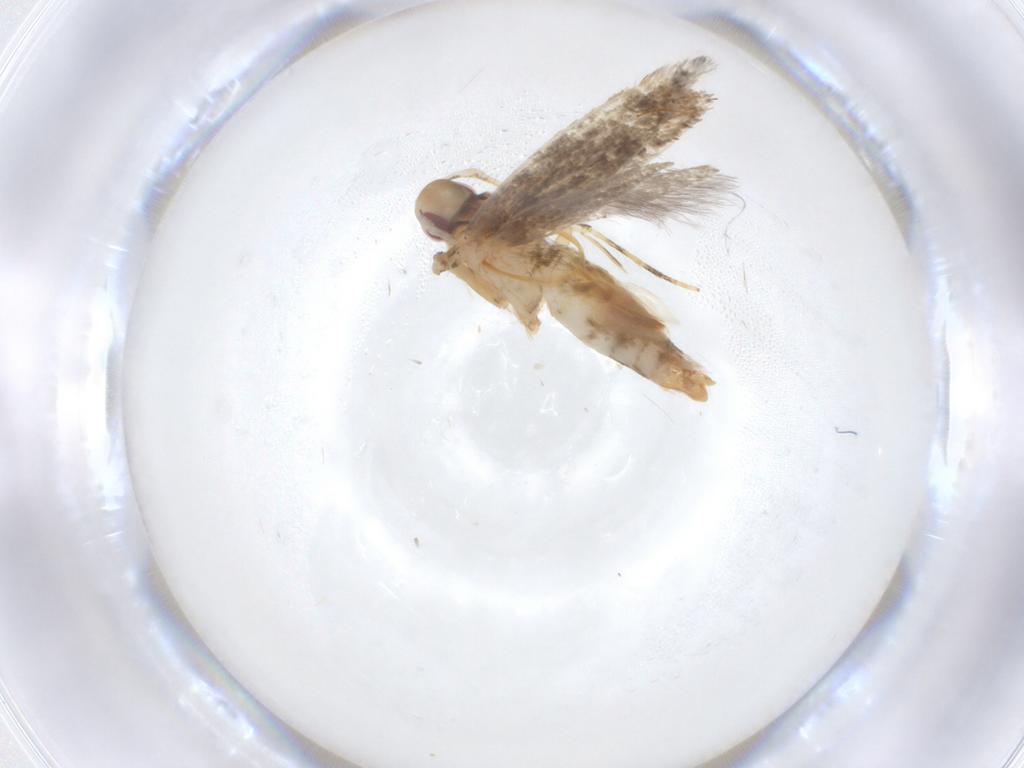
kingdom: Animalia
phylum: Arthropoda
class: Insecta
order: Lepidoptera
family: Cosmopterigidae
